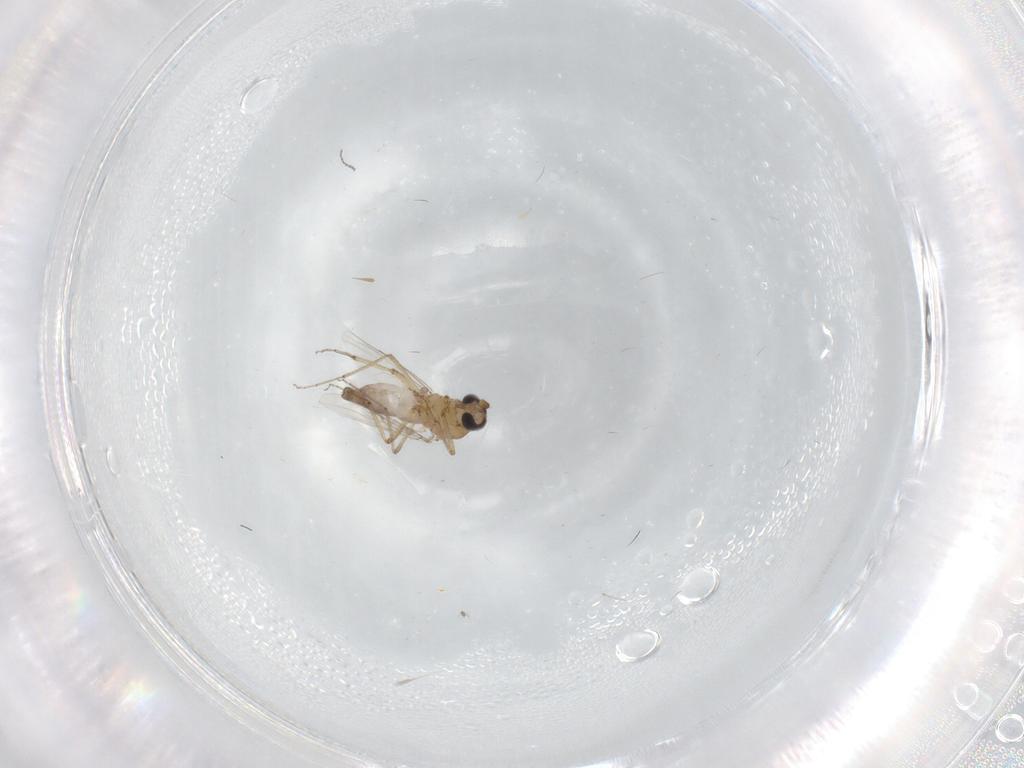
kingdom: Animalia
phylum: Arthropoda
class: Insecta
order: Diptera
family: Ceratopogonidae
